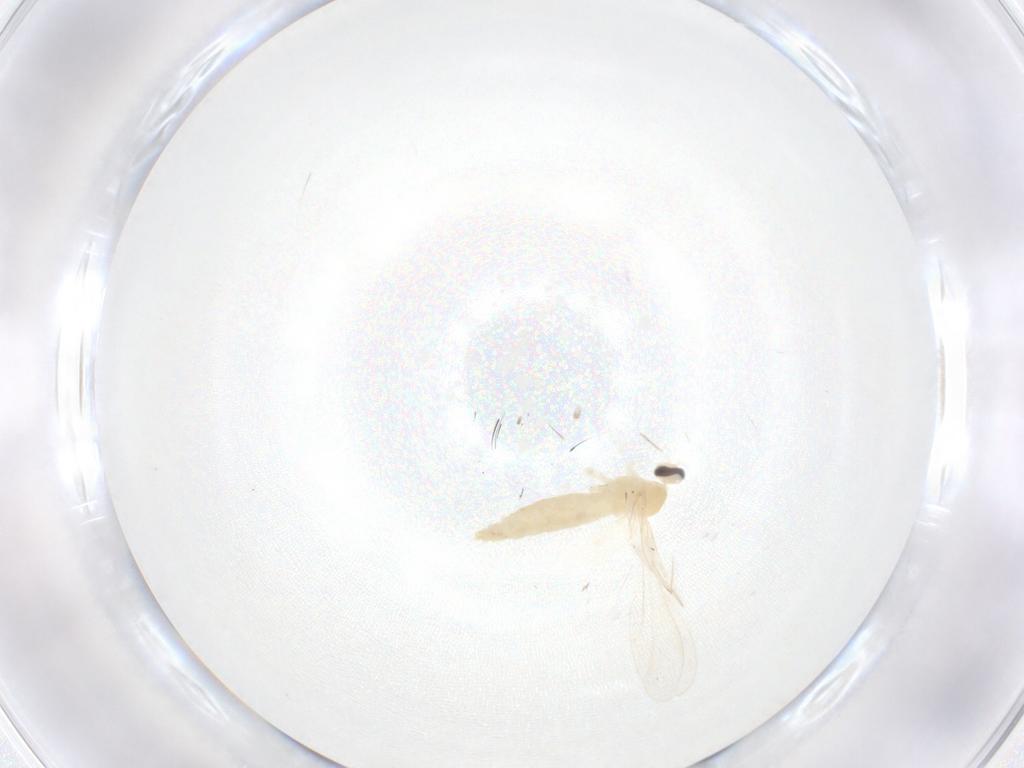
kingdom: Animalia
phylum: Arthropoda
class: Insecta
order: Diptera
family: Cecidomyiidae
